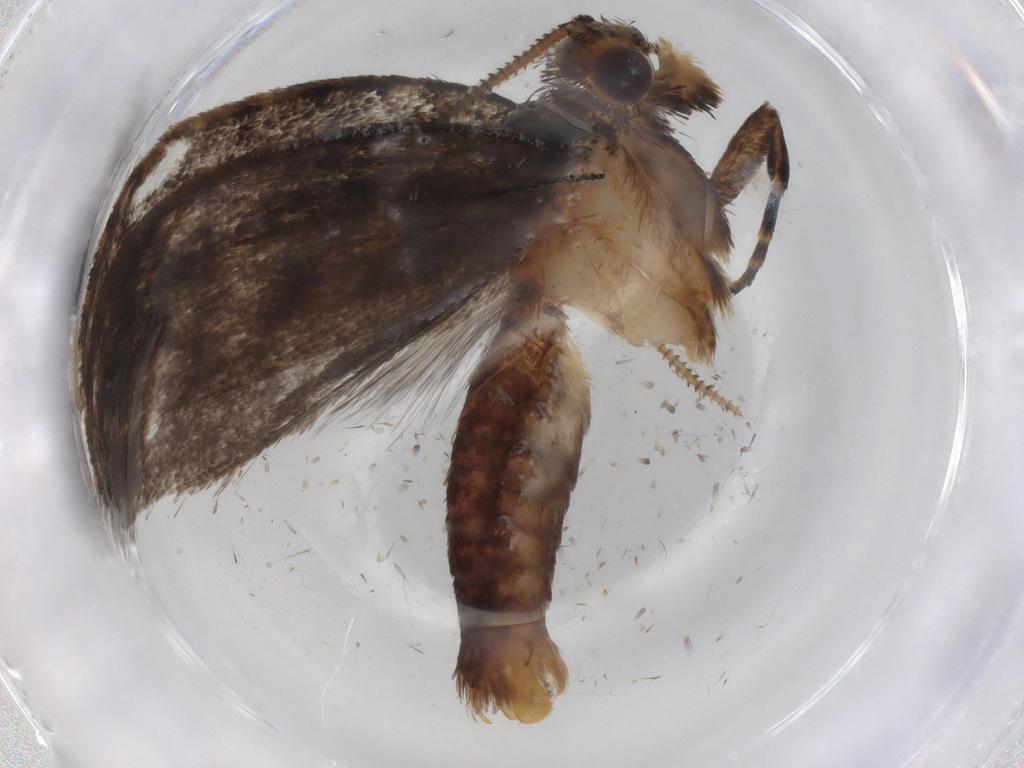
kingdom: Animalia
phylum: Arthropoda
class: Insecta
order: Lepidoptera
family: Tineidae
